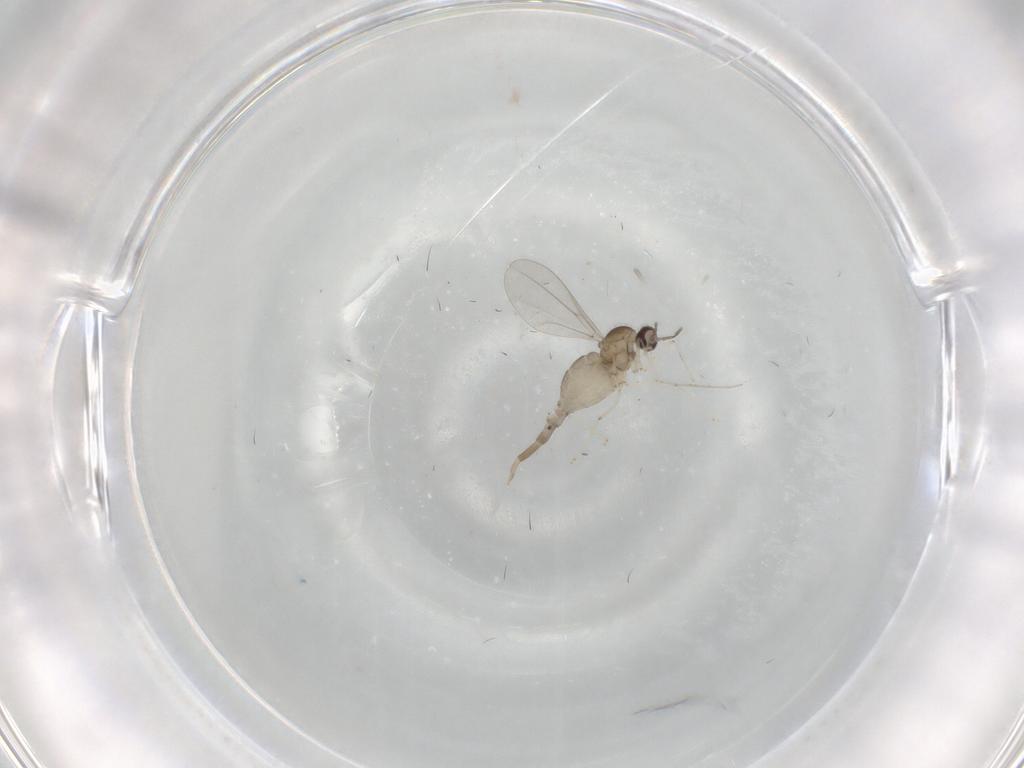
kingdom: Animalia
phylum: Arthropoda
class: Insecta
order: Diptera
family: Cecidomyiidae
